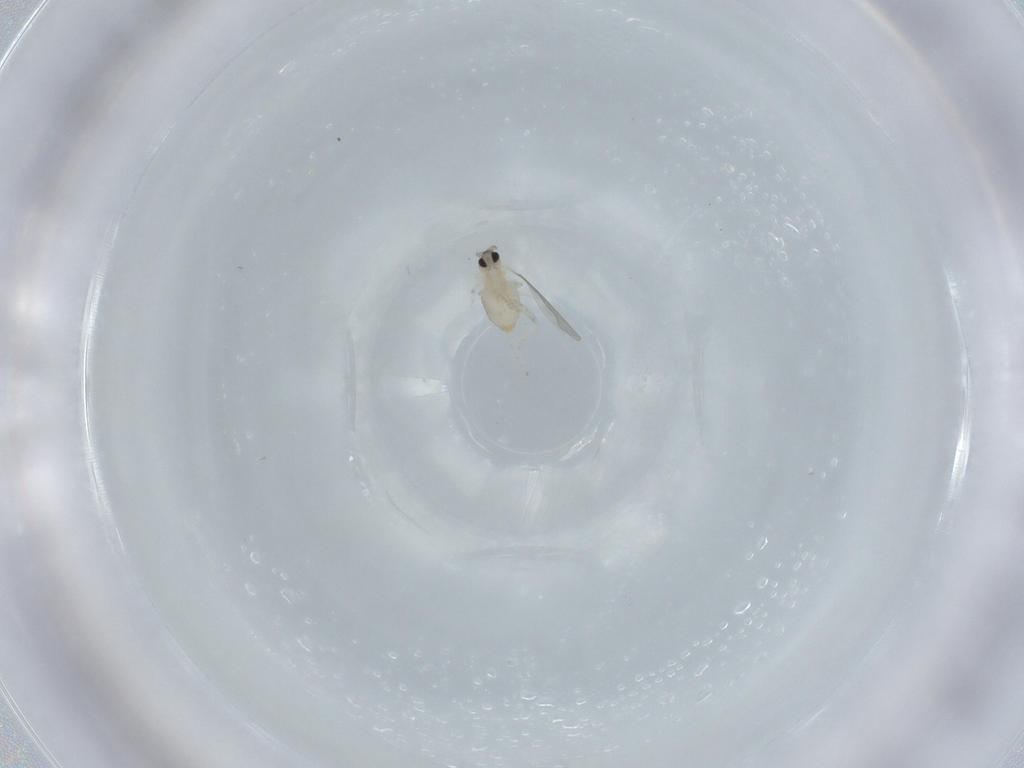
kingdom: Animalia
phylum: Arthropoda
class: Insecta
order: Diptera
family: Cecidomyiidae
